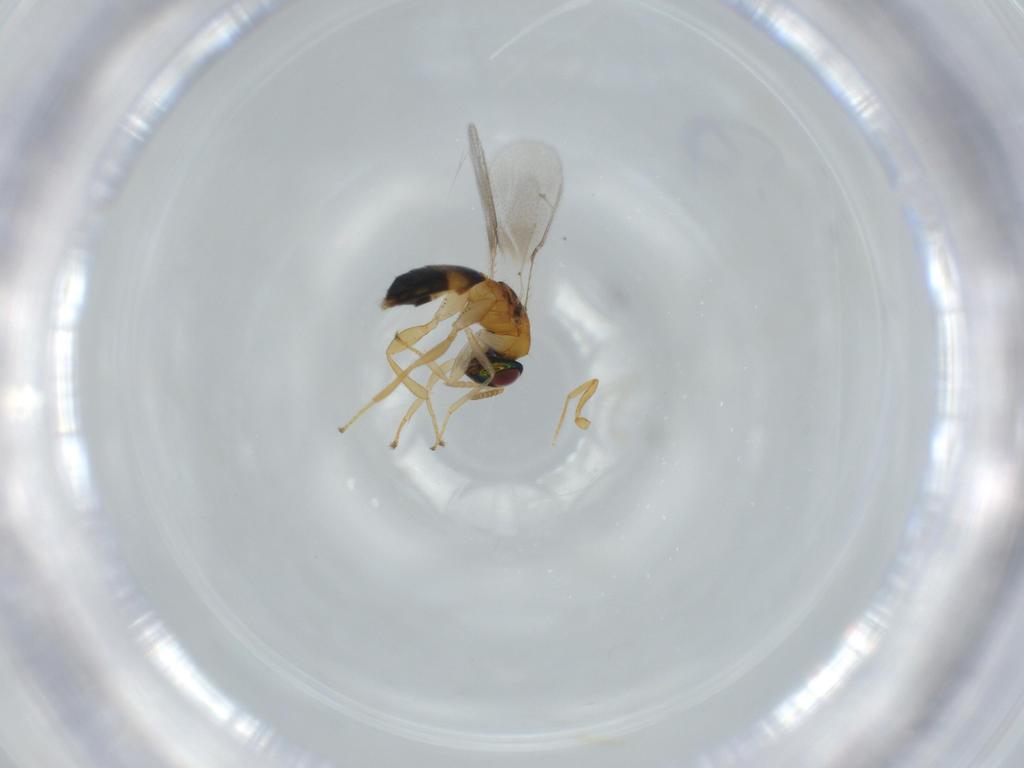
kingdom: Animalia
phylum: Arthropoda
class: Insecta
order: Hymenoptera
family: Torymidae
